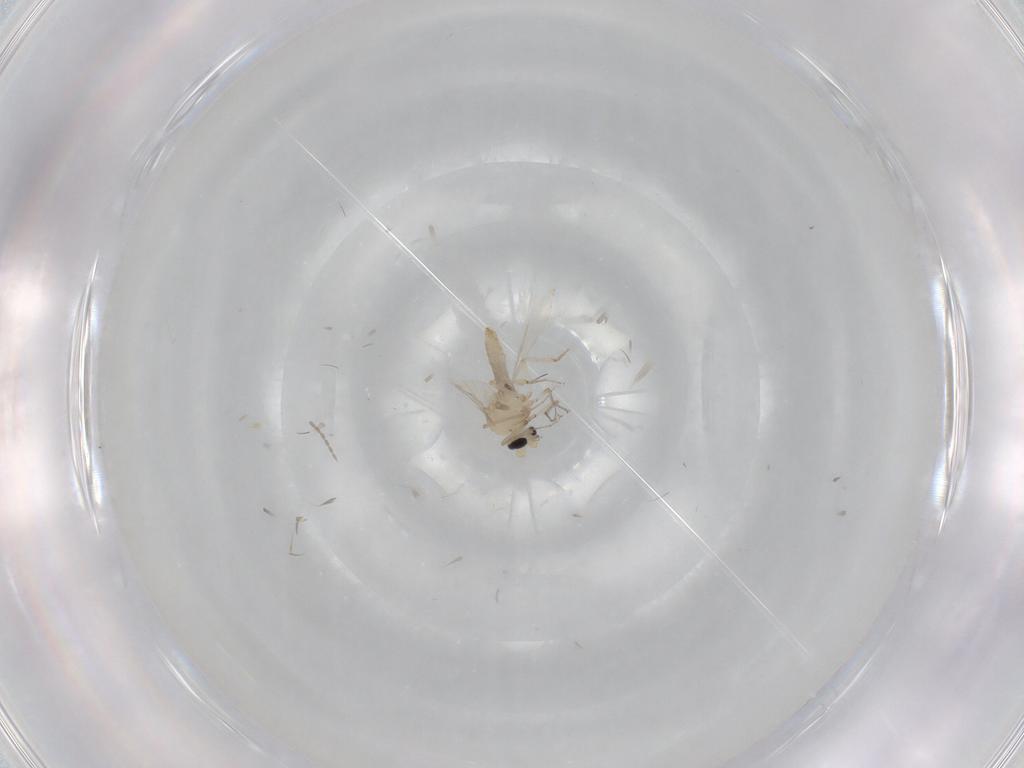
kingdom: Animalia
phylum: Arthropoda
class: Insecta
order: Diptera
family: Ceratopogonidae
